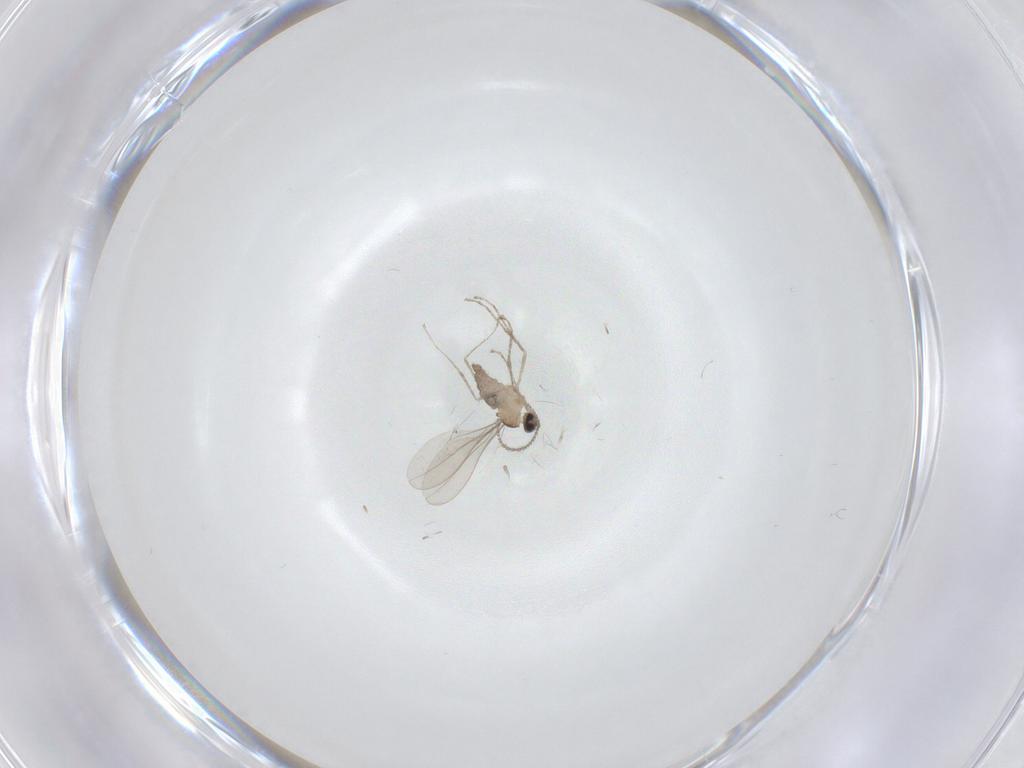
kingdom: Animalia
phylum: Arthropoda
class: Insecta
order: Diptera
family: Cecidomyiidae
